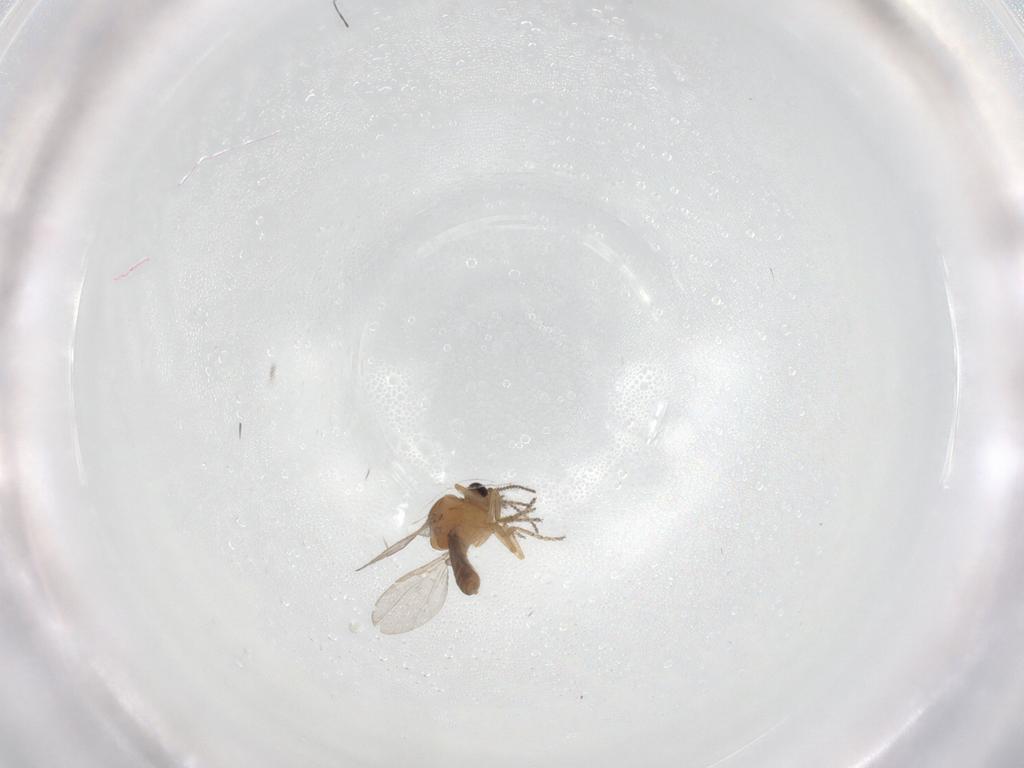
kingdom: Animalia
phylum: Arthropoda
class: Insecta
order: Diptera
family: Ceratopogonidae
